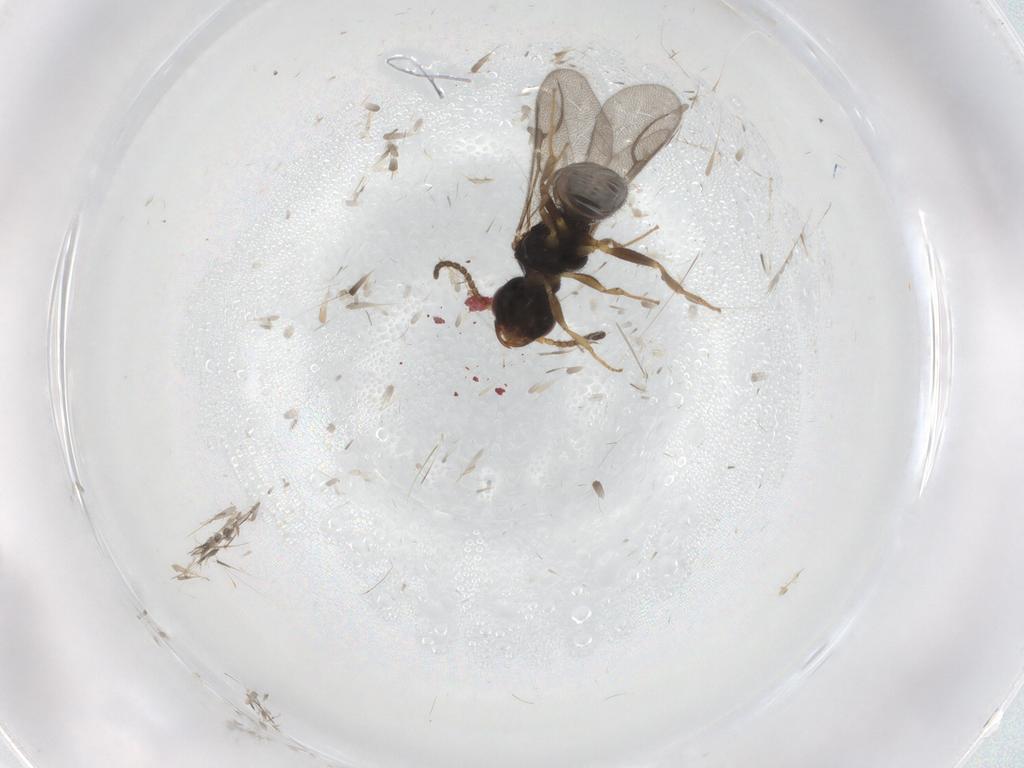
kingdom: Animalia
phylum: Arthropoda
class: Insecta
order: Hymenoptera
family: Bethylidae
